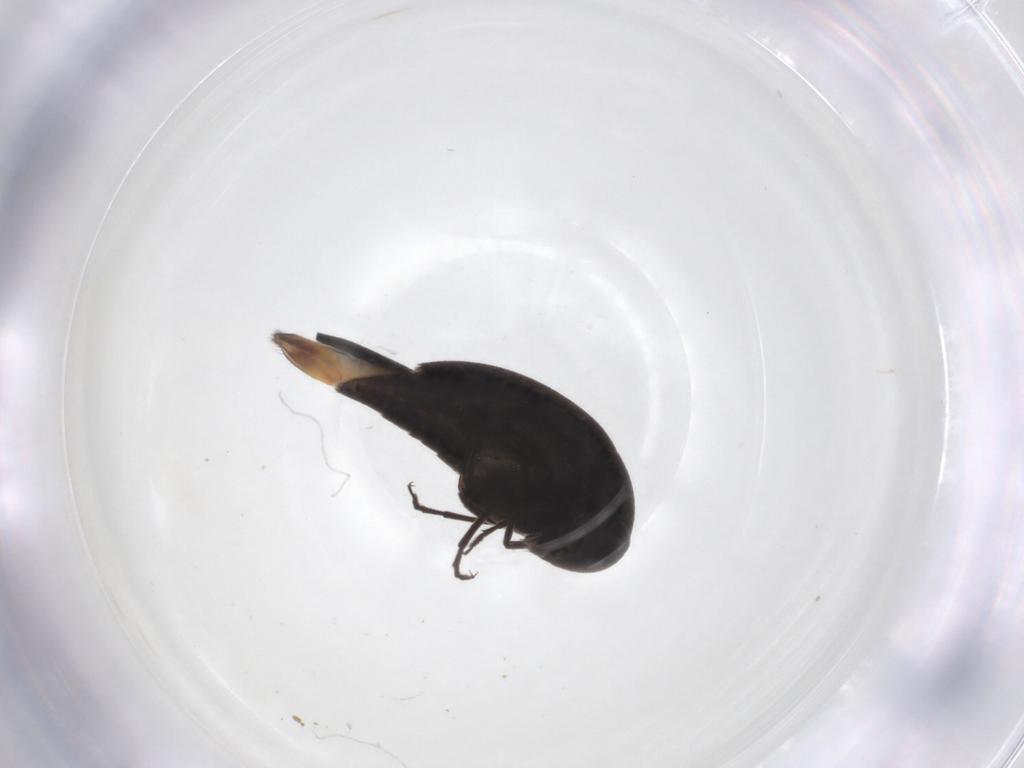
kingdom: Animalia
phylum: Arthropoda
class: Insecta
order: Coleoptera
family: Mordellidae
